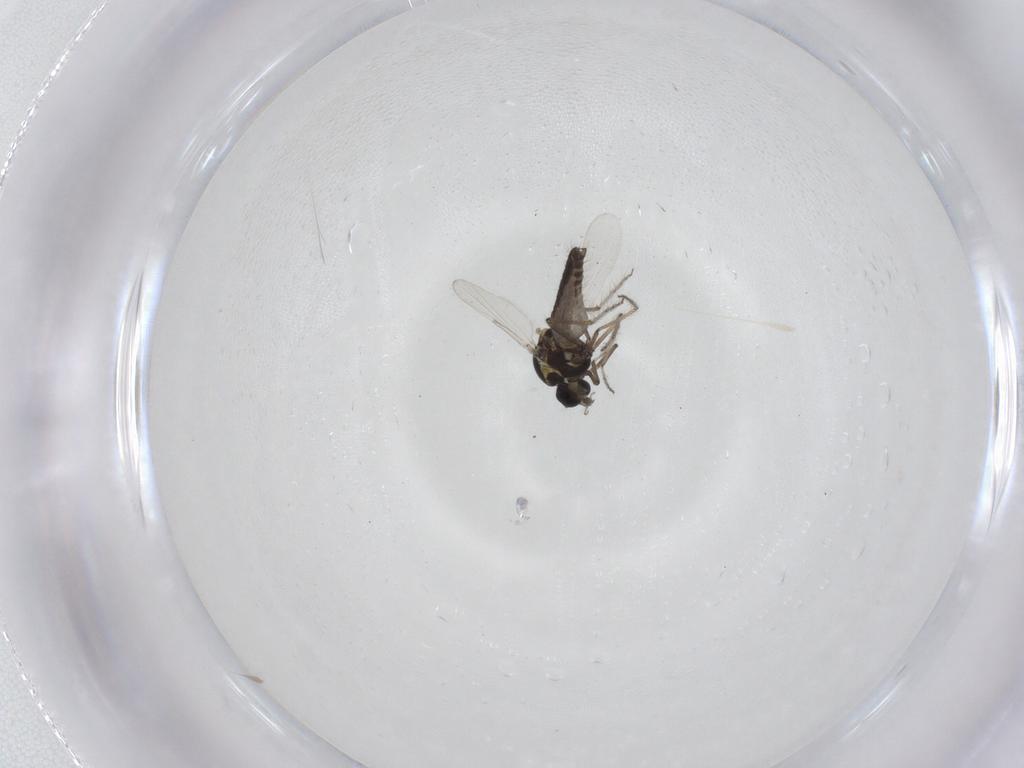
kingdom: Animalia
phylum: Arthropoda
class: Insecta
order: Diptera
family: Ceratopogonidae
